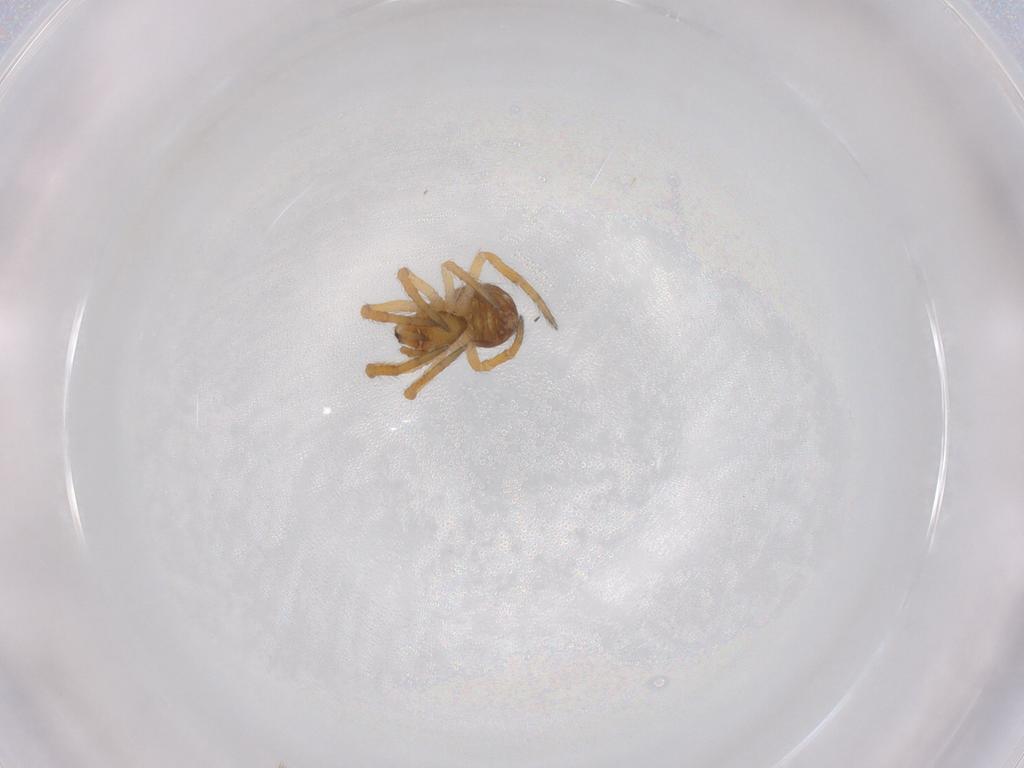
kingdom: Animalia
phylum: Arthropoda
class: Arachnida
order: Araneae
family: Theridiidae
